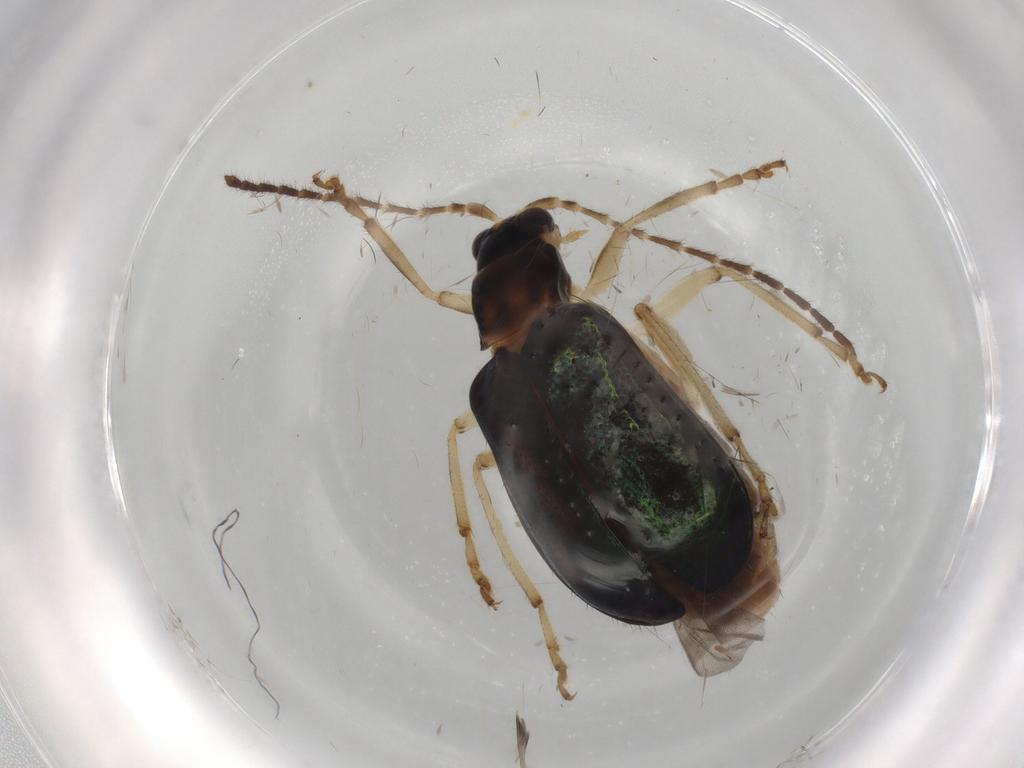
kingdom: Animalia
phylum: Arthropoda
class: Insecta
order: Coleoptera
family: Chrysomelidae
